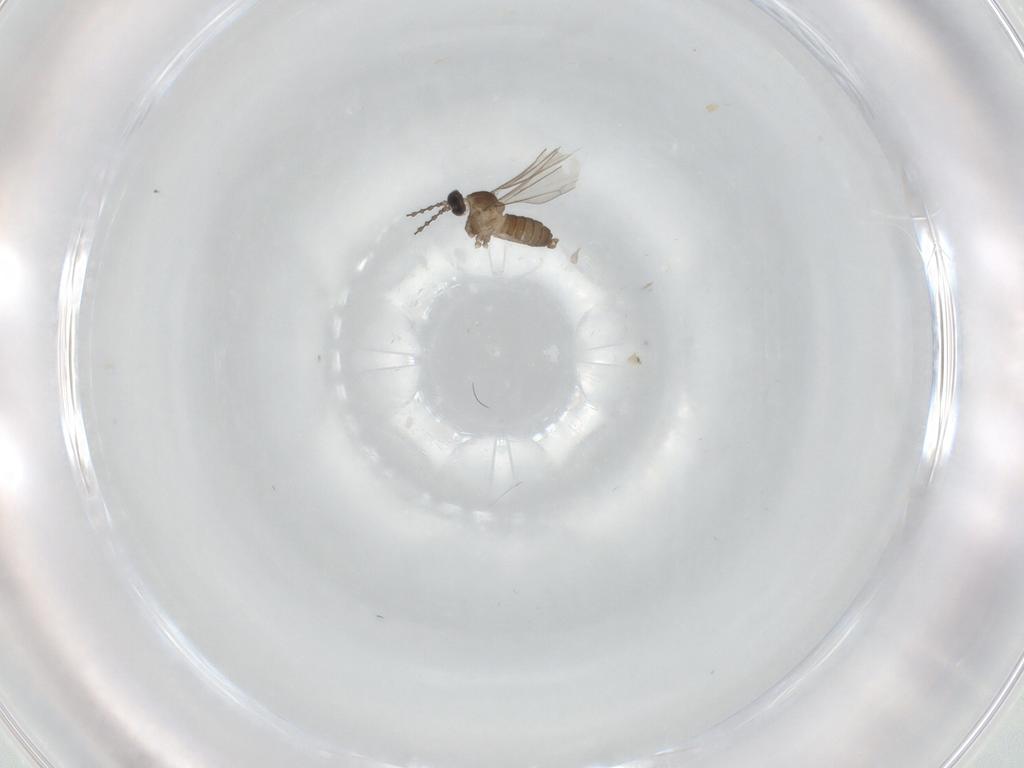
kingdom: Animalia
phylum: Arthropoda
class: Insecta
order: Diptera
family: Cecidomyiidae
